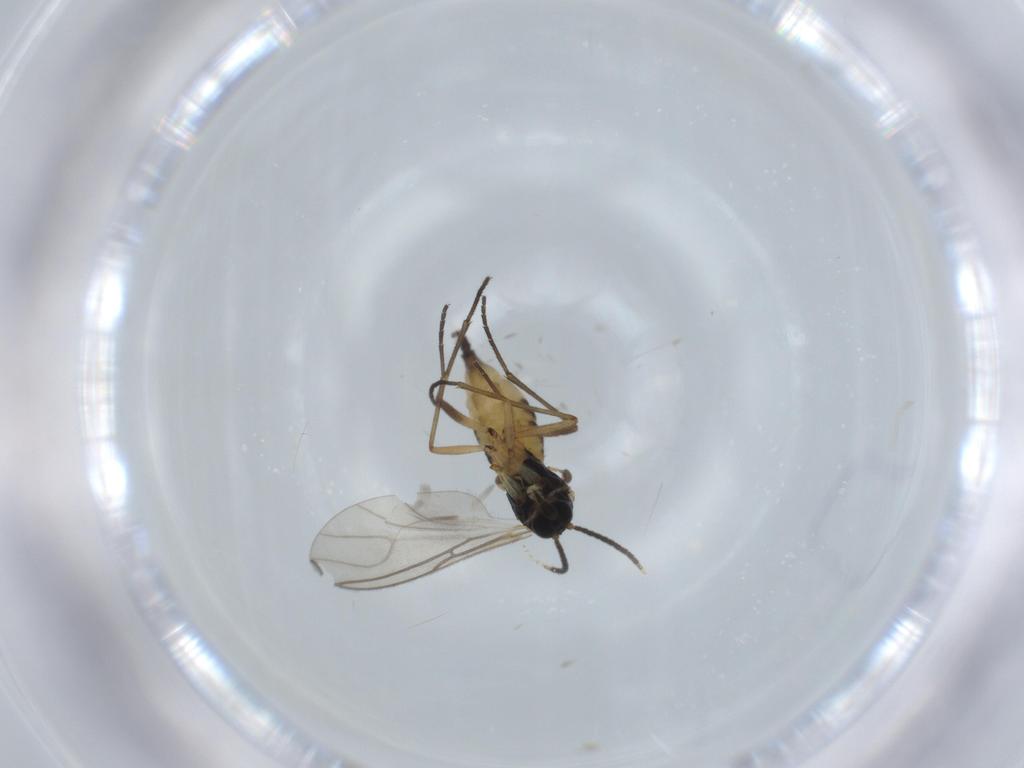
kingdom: Animalia
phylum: Arthropoda
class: Insecta
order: Diptera
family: Sciaridae
